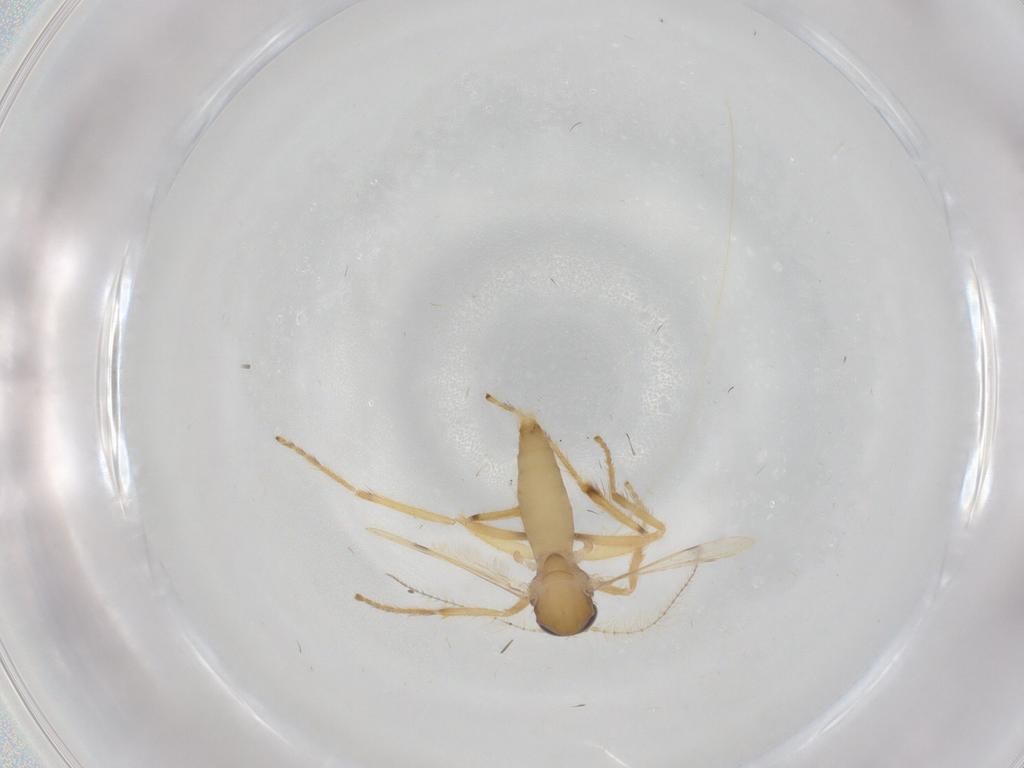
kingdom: Animalia
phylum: Arthropoda
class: Insecta
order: Diptera
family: Corethrellidae
